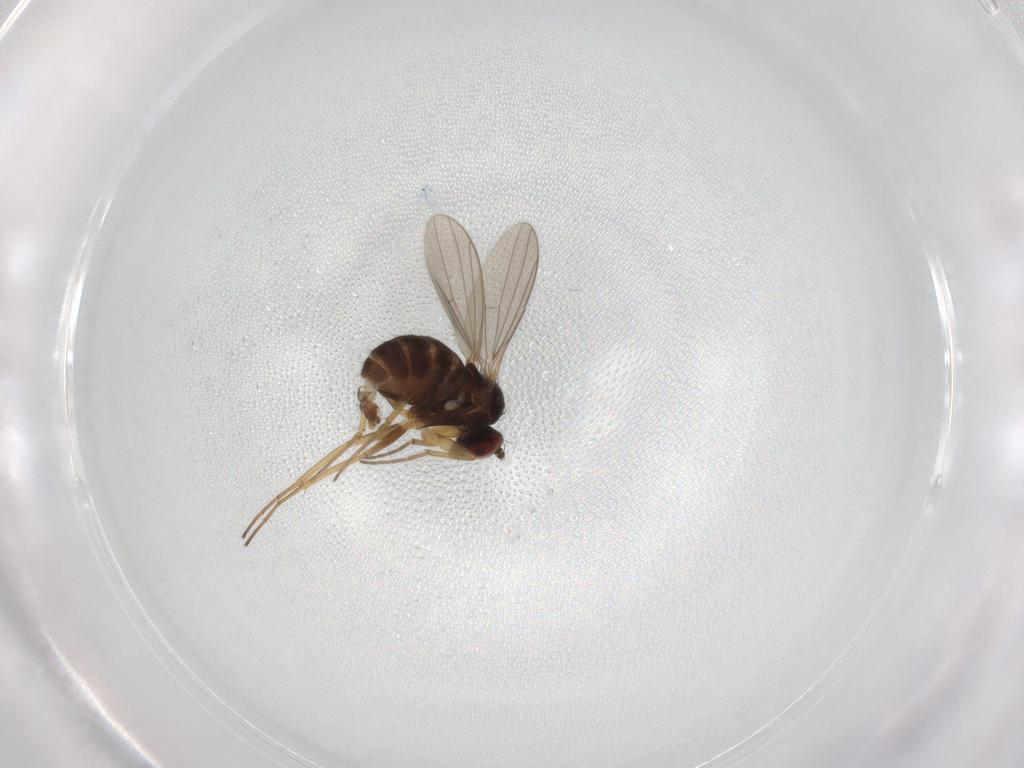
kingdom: Animalia
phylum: Arthropoda
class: Insecta
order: Diptera
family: Dolichopodidae
